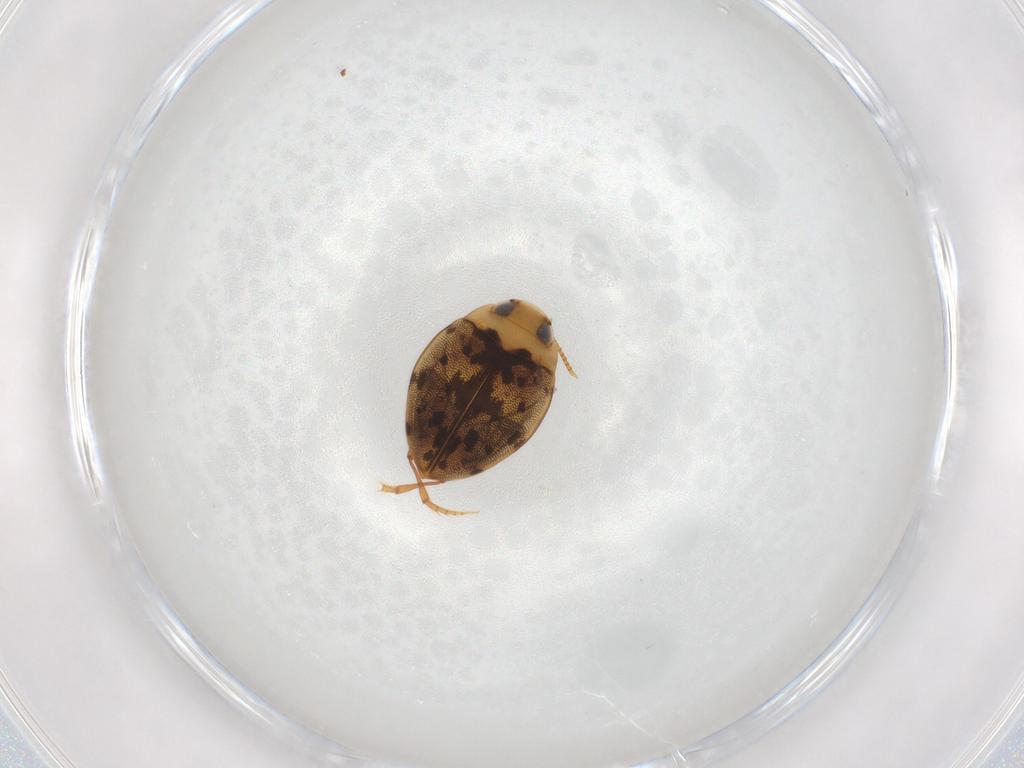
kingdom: Animalia
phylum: Arthropoda
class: Insecta
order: Coleoptera
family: Dytiscidae
